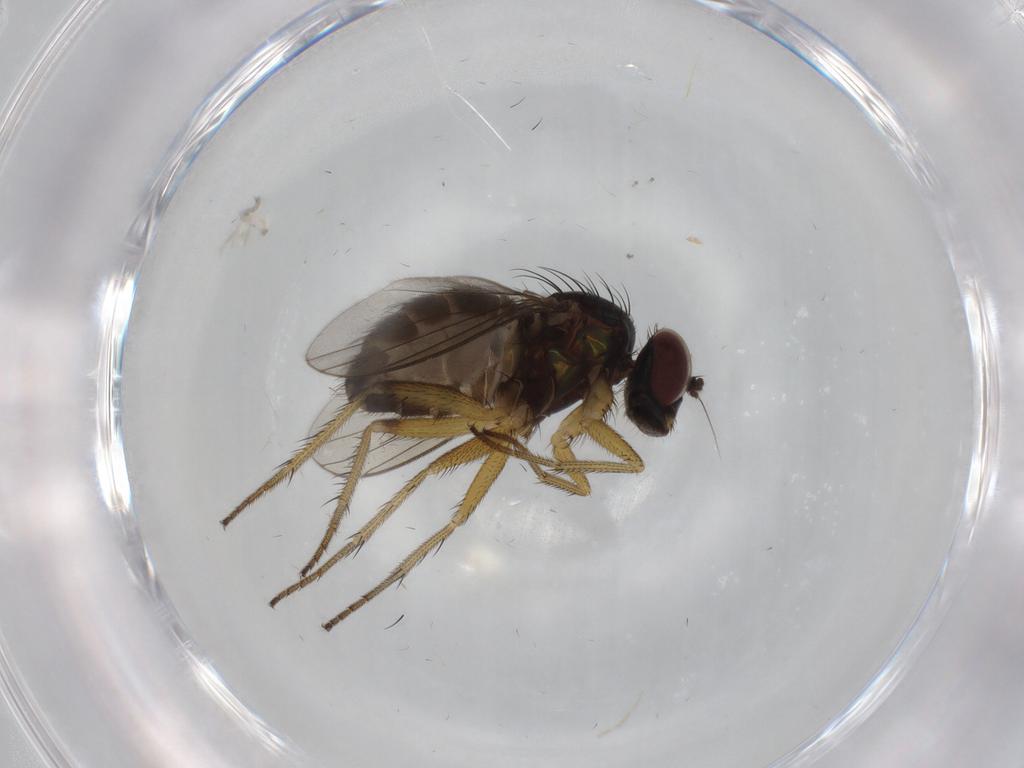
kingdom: Animalia
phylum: Arthropoda
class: Insecta
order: Diptera
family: Dolichopodidae
